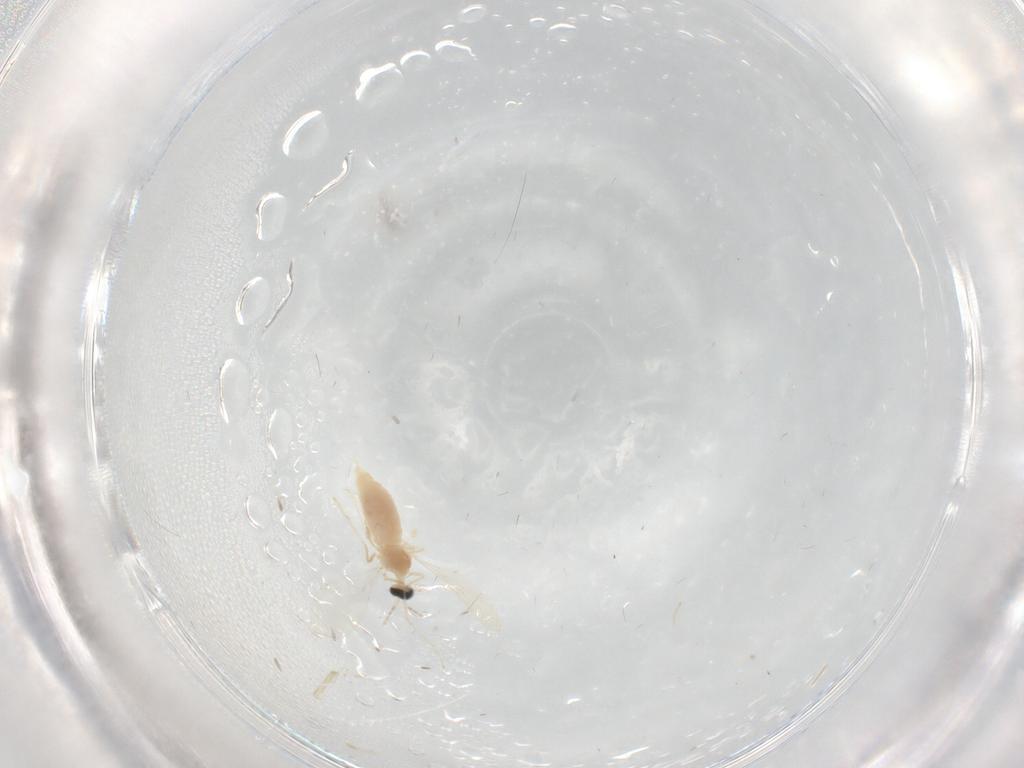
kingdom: Animalia
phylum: Arthropoda
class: Insecta
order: Diptera
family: Cecidomyiidae
